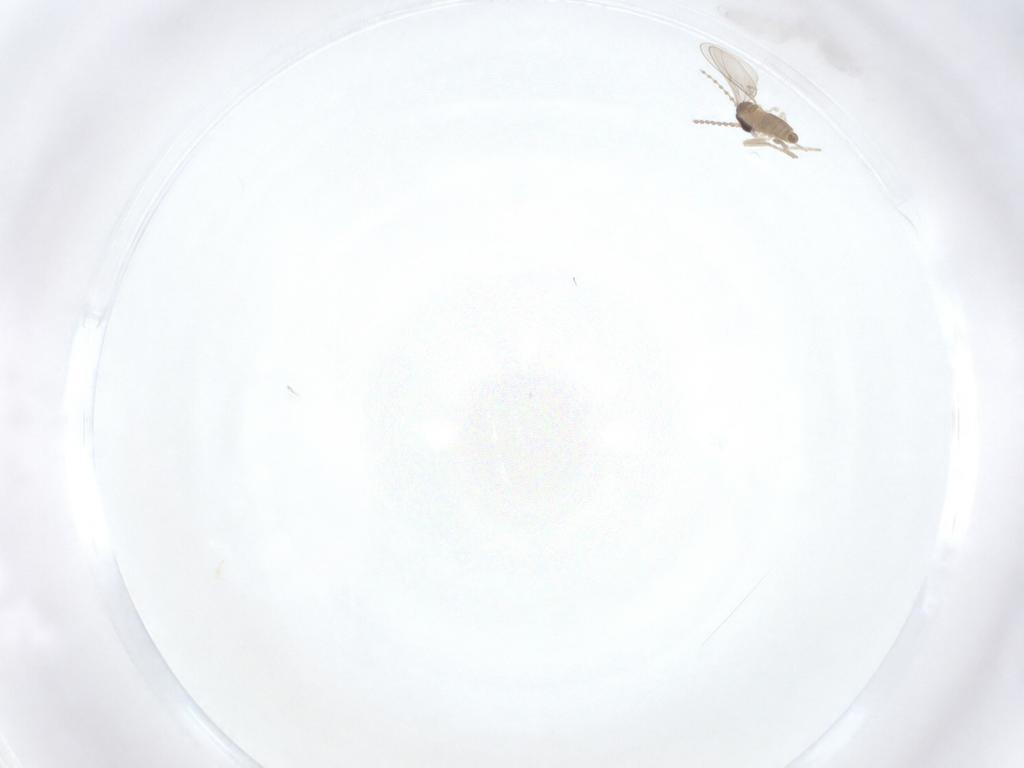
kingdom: Animalia
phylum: Arthropoda
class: Insecta
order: Diptera
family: Cecidomyiidae
